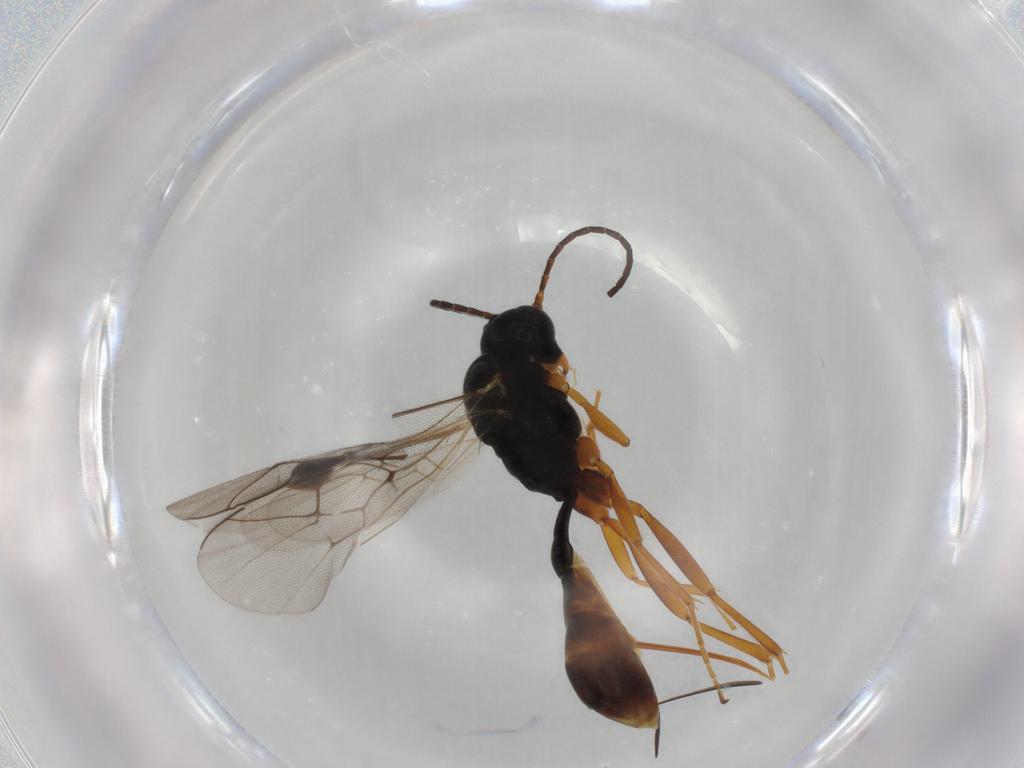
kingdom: Animalia
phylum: Arthropoda
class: Insecta
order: Hymenoptera
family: Ichneumonidae
